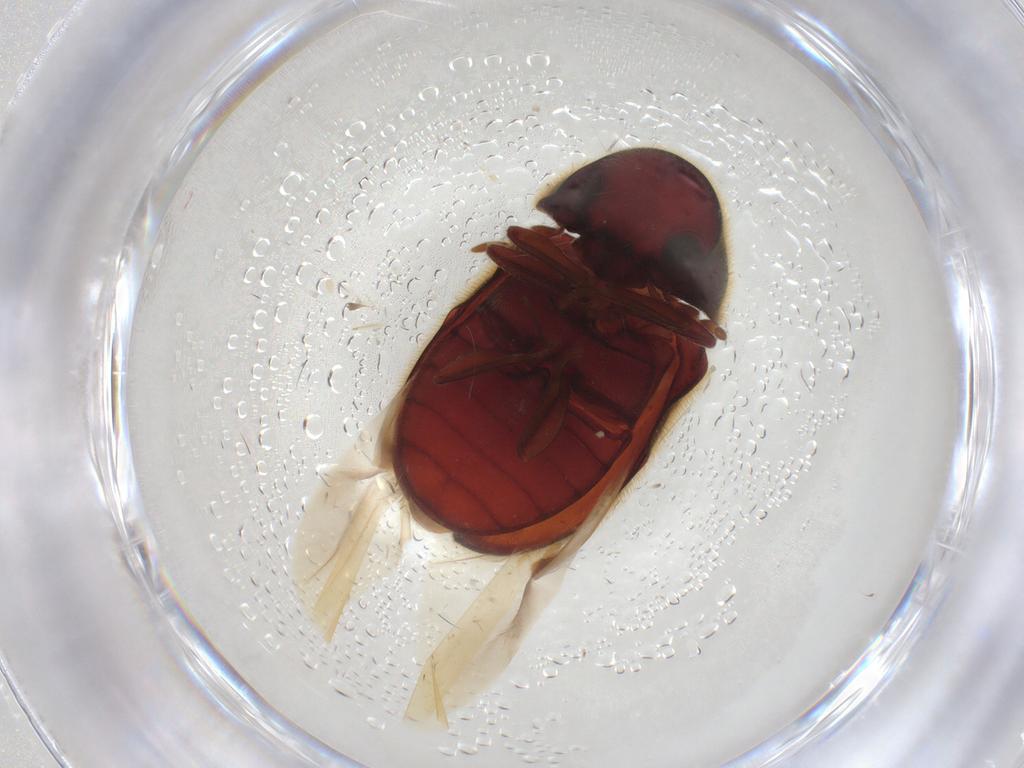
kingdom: Animalia
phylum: Arthropoda
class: Insecta
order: Coleoptera
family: Ptinidae
